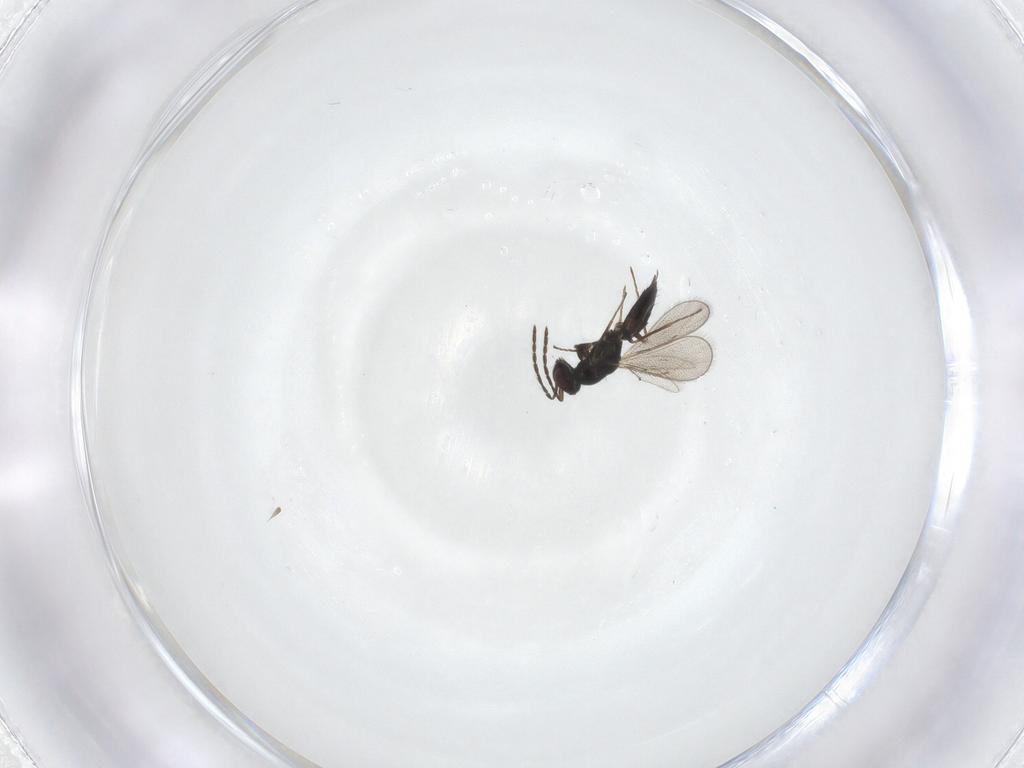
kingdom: Animalia
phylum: Arthropoda
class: Insecta
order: Hymenoptera
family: Eulophidae
